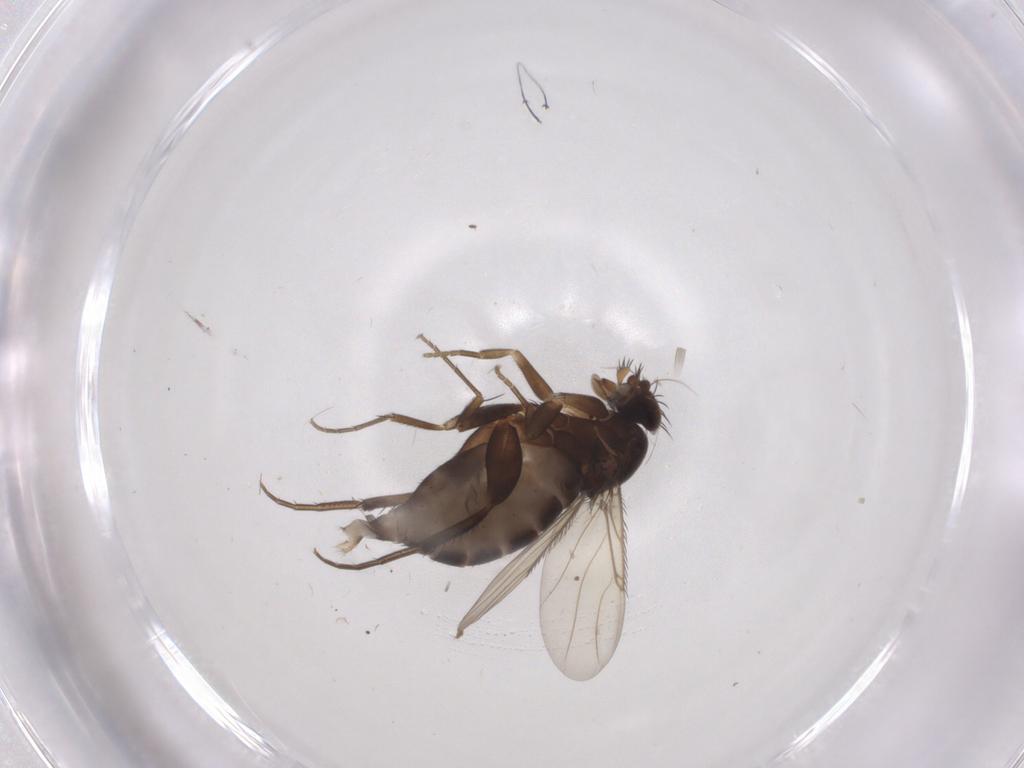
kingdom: Animalia
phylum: Arthropoda
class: Insecta
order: Diptera
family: Phoridae
